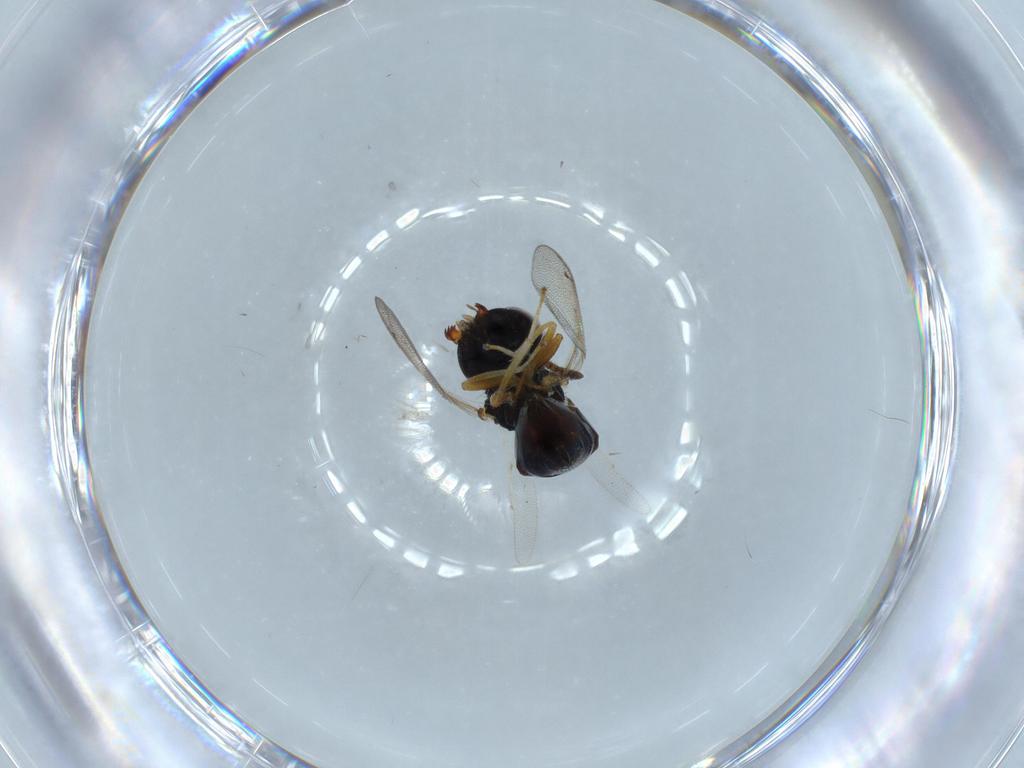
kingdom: Animalia
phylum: Arthropoda
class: Insecta
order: Hymenoptera
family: Pteromalidae
